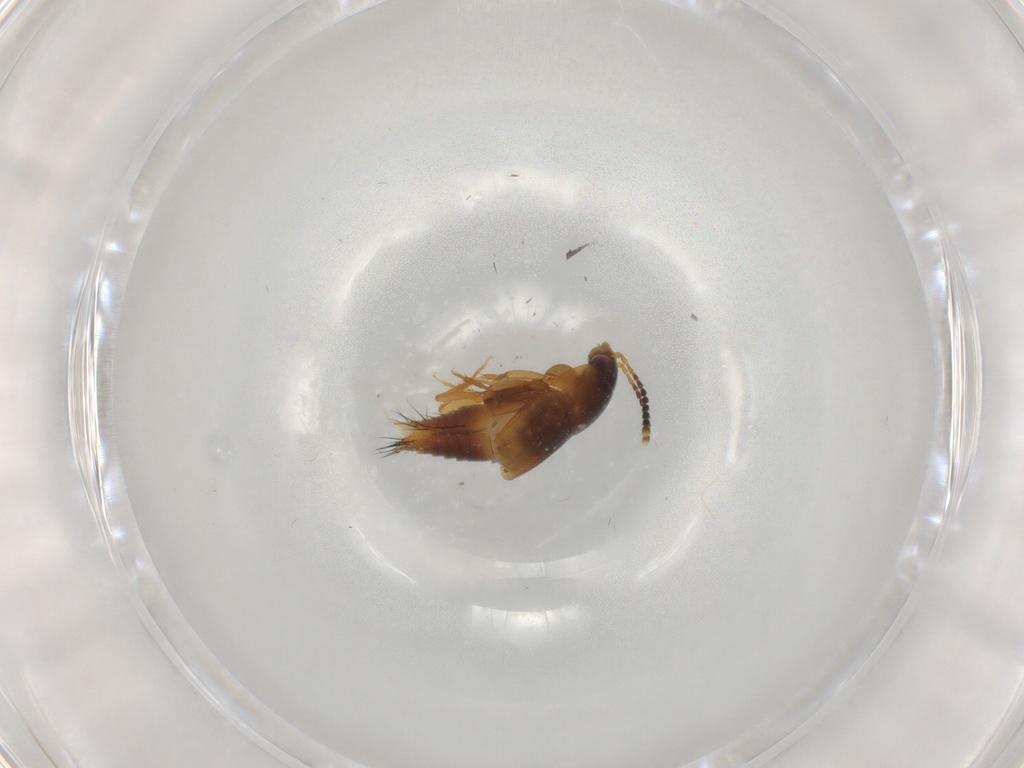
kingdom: Animalia
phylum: Arthropoda
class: Insecta
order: Coleoptera
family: Staphylinidae
